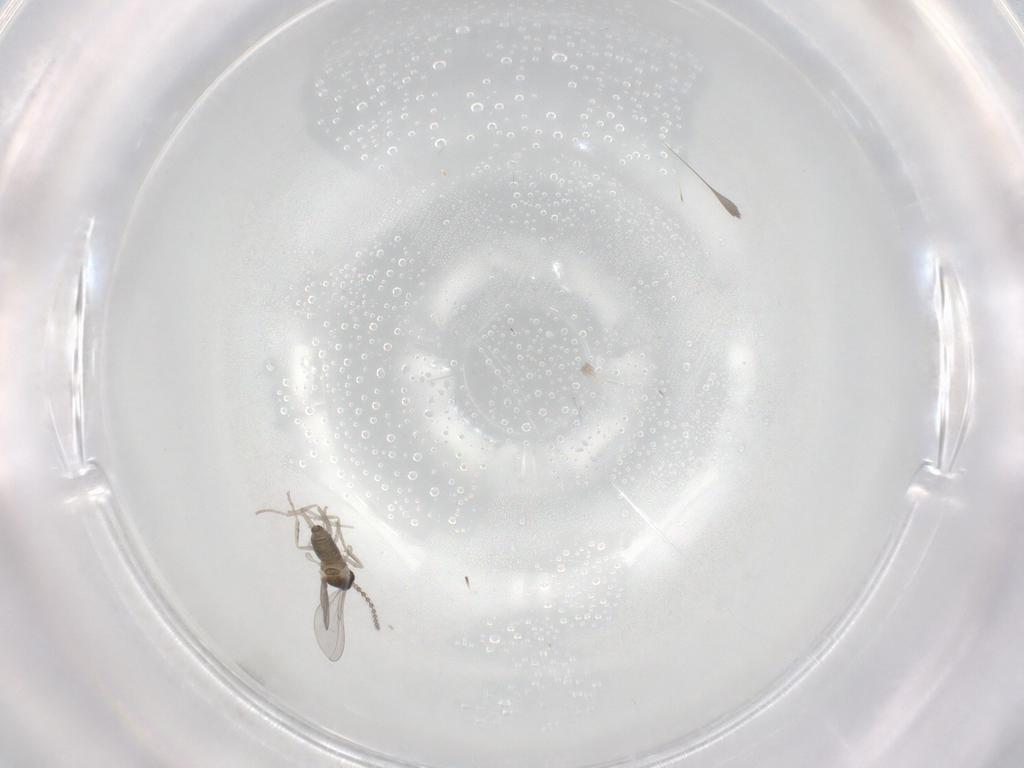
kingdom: Animalia
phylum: Arthropoda
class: Insecta
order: Diptera
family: Cecidomyiidae
